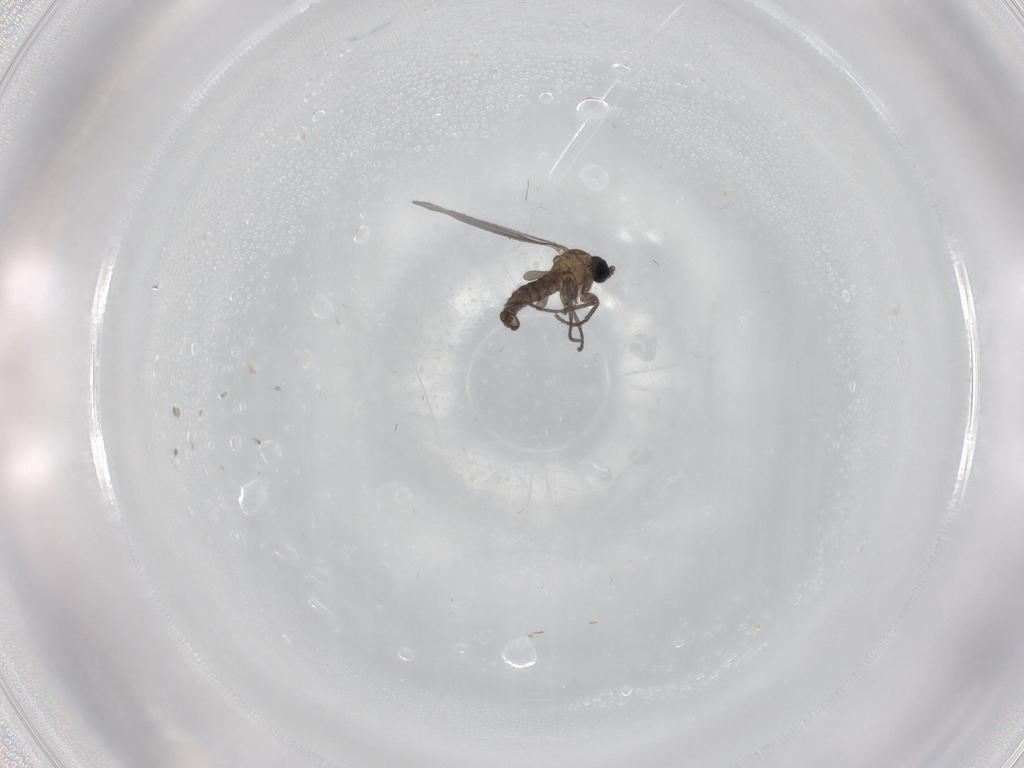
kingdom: Animalia
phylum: Arthropoda
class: Insecta
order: Diptera
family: Sciaridae
